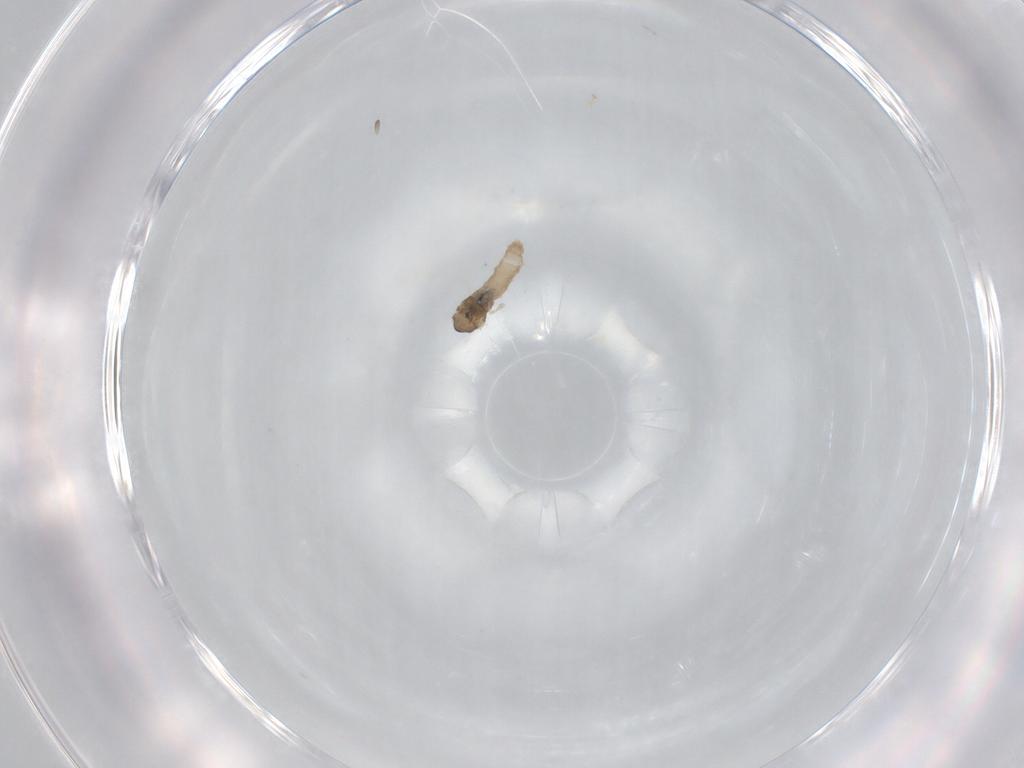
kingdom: Animalia
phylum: Arthropoda
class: Insecta
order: Diptera
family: Cecidomyiidae
